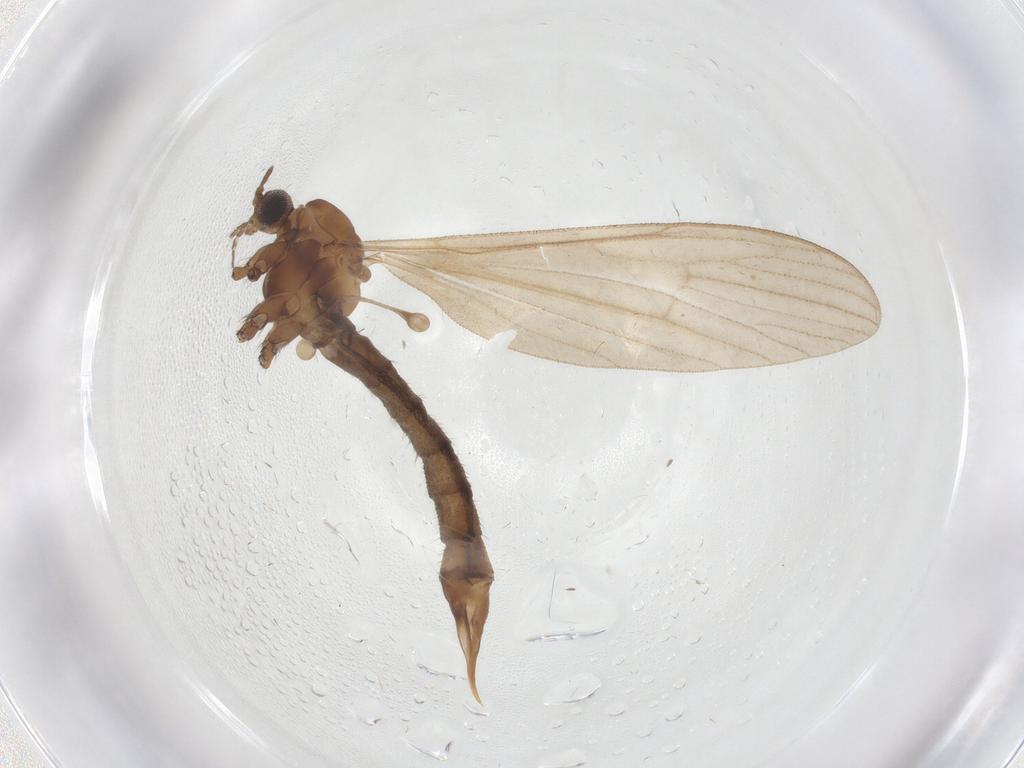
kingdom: Animalia
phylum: Arthropoda
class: Insecta
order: Diptera
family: Limoniidae
